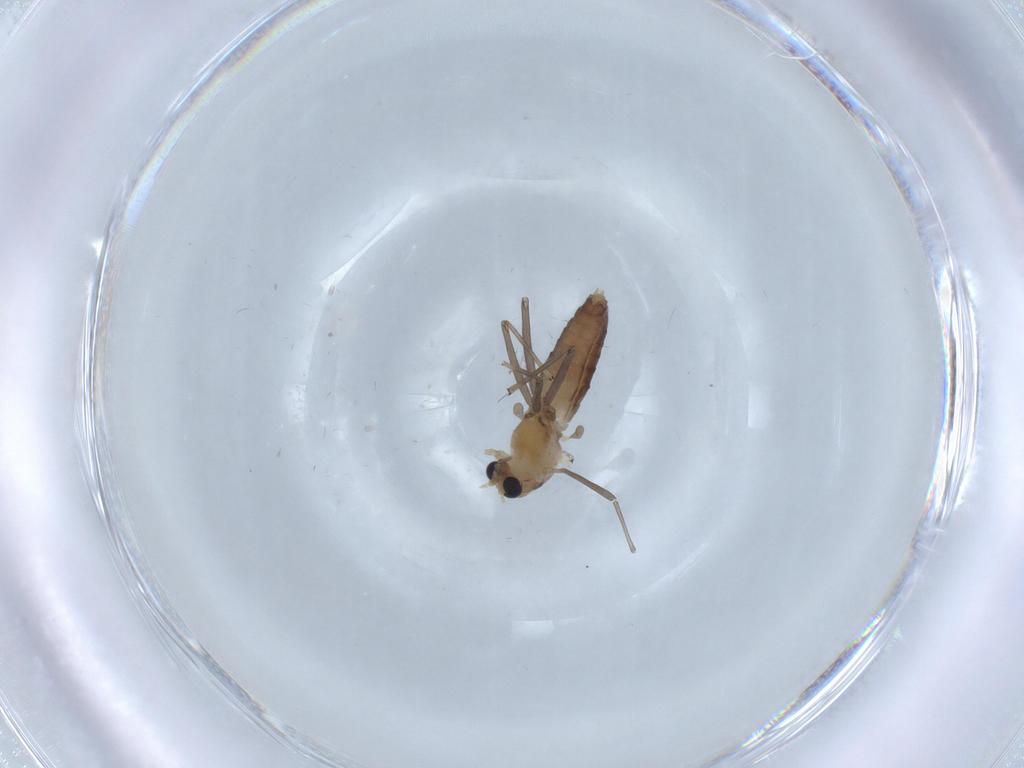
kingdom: Animalia
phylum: Arthropoda
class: Insecta
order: Diptera
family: Chironomidae
